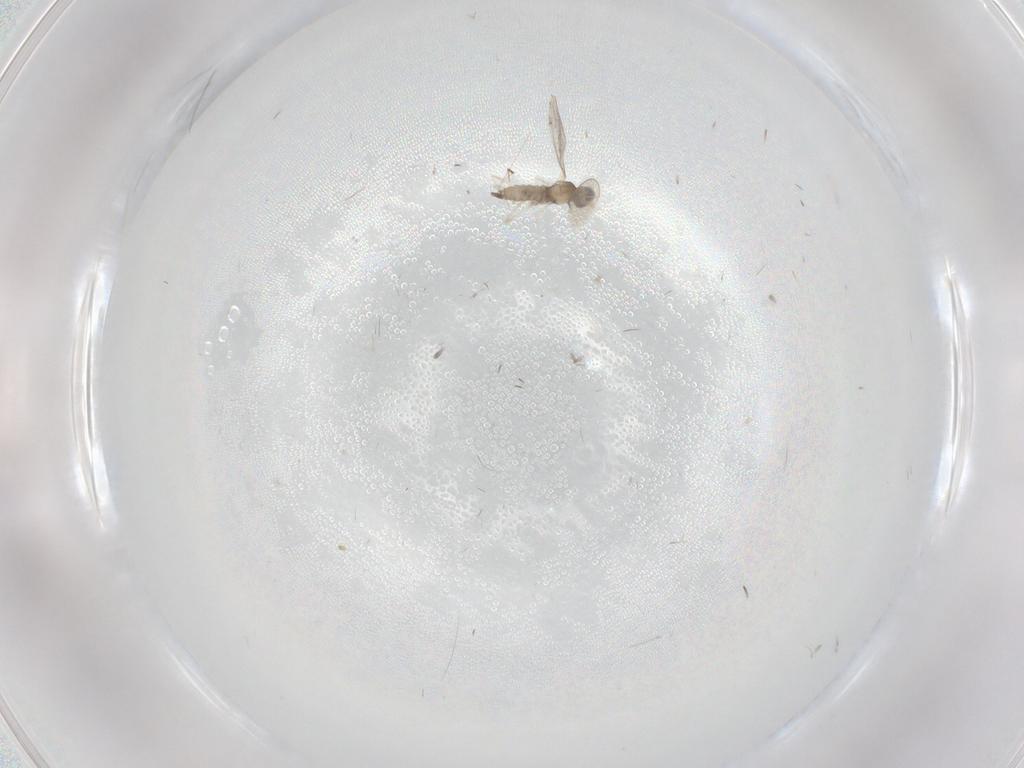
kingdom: Animalia
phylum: Arthropoda
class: Insecta
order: Diptera
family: Cecidomyiidae
